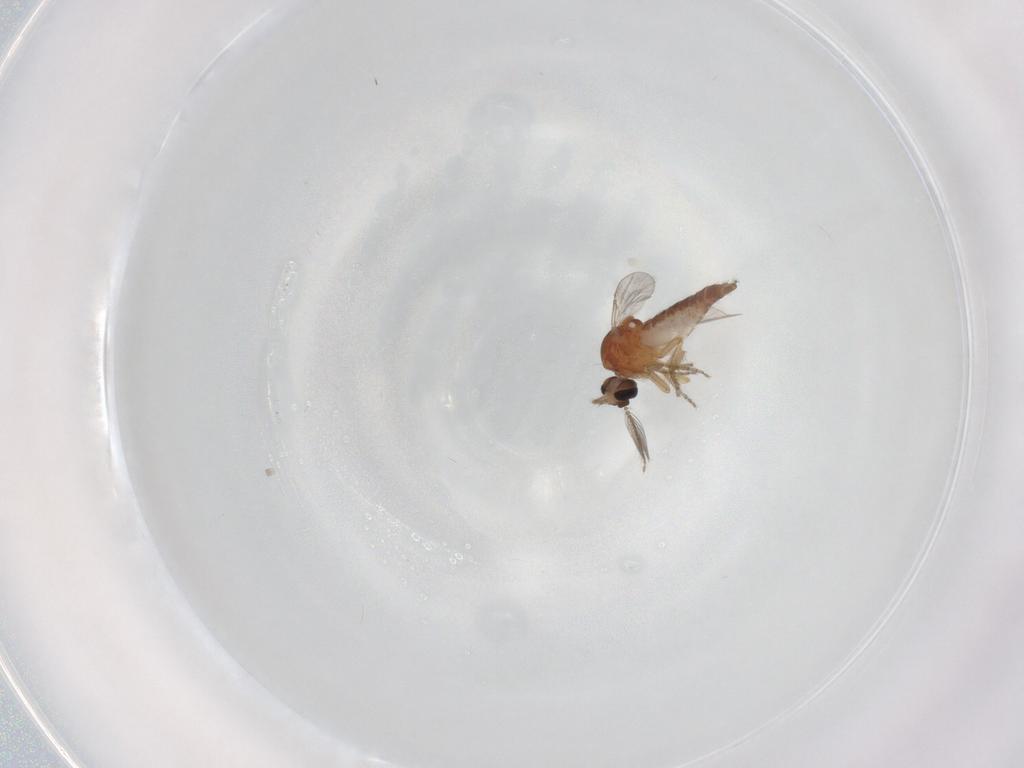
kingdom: Animalia
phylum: Arthropoda
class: Insecta
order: Diptera
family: Ceratopogonidae
